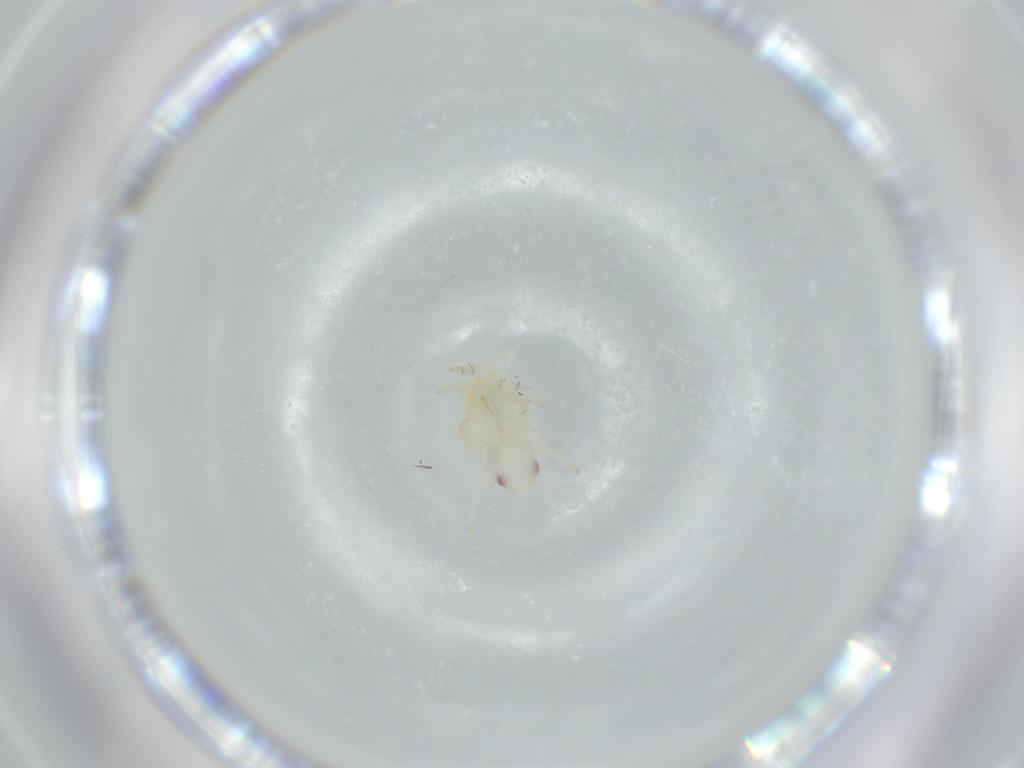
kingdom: Animalia
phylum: Arthropoda
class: Insecta
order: Hemiptera
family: Flatidae
